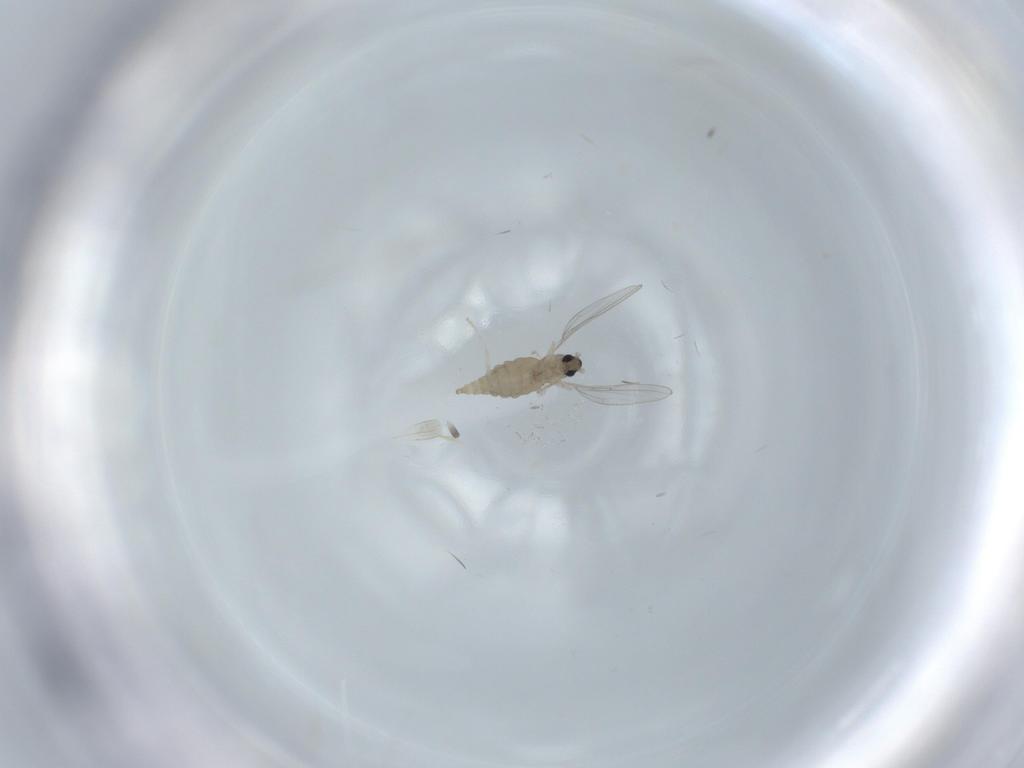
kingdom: Animalia
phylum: Arthropoda
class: Insecta
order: Diptera
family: Cecidomyiidae
